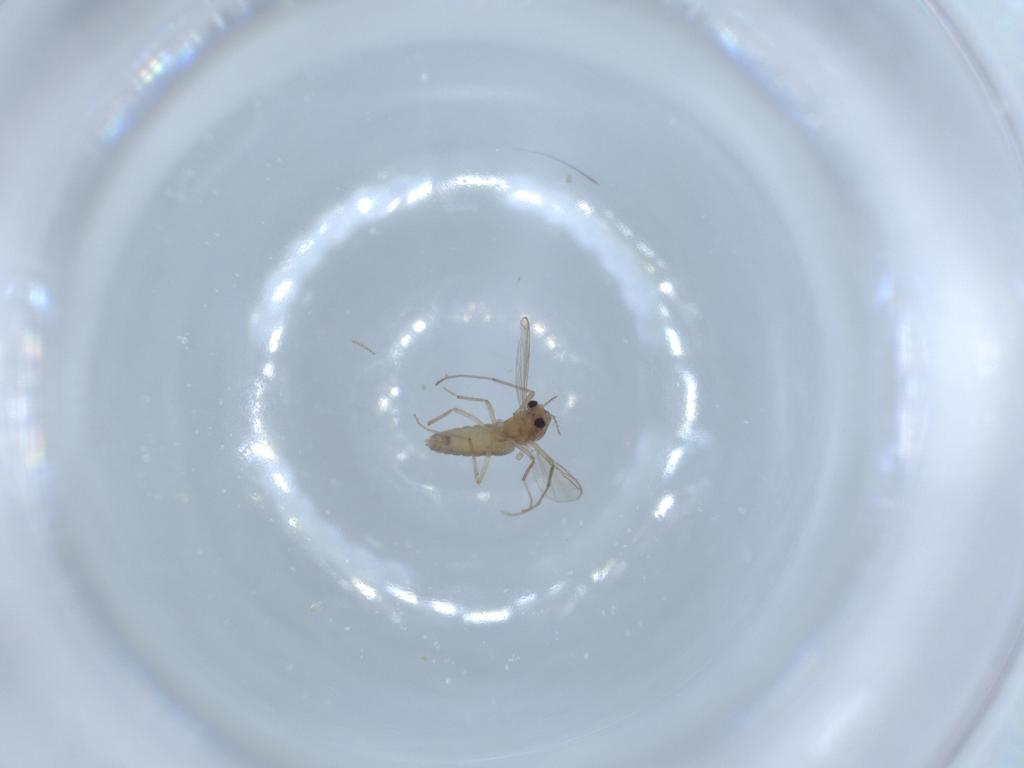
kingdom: Animalia
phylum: Arthropoda
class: Insecta
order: Diptera
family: Chironomidae
